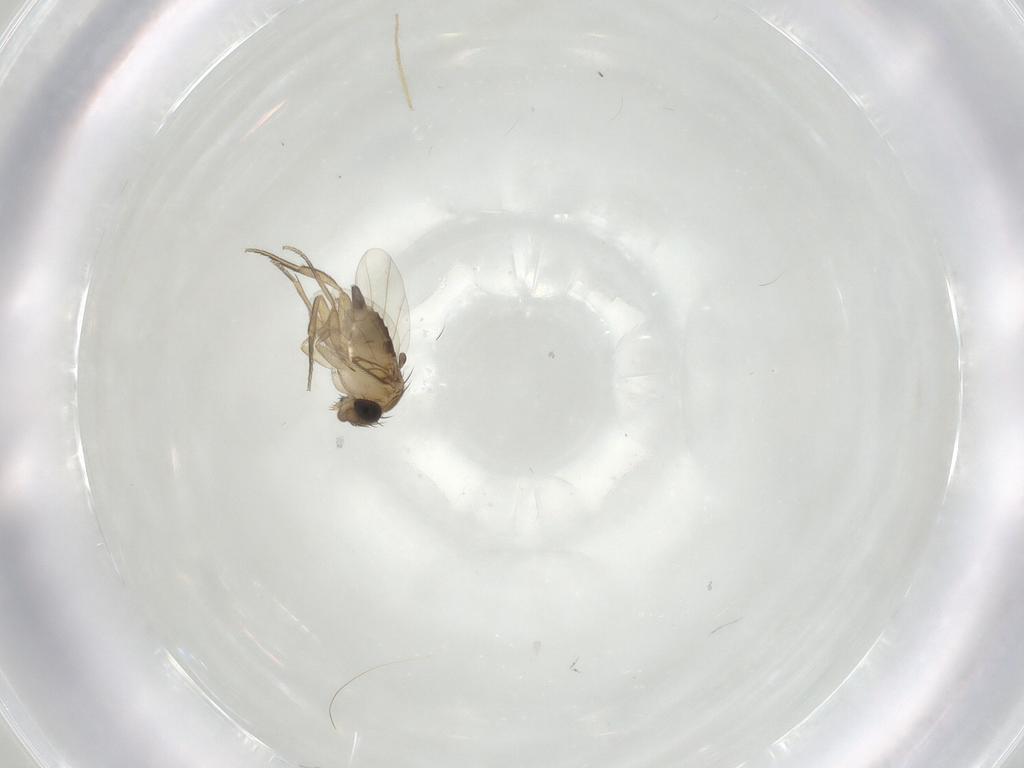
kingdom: Animalia
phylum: Arthropoda
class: Insecta
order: Diptera
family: Chironomidae
